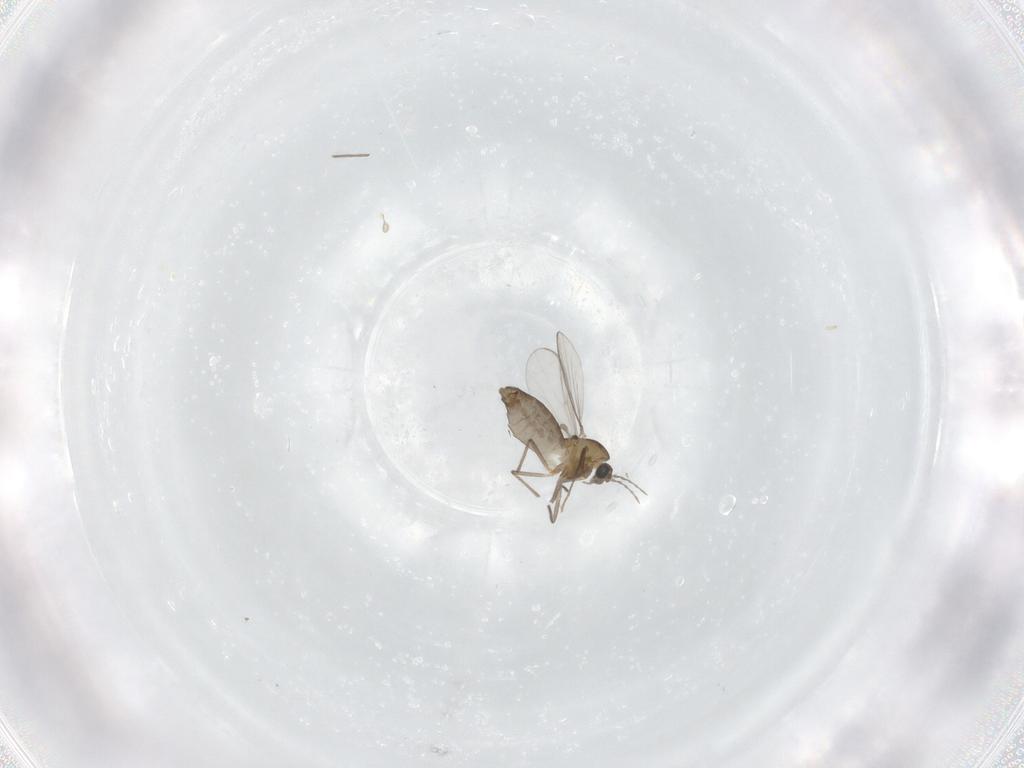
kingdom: Animalia
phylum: Arthropoda
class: Insecta
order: Diptera
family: Chironomidae
